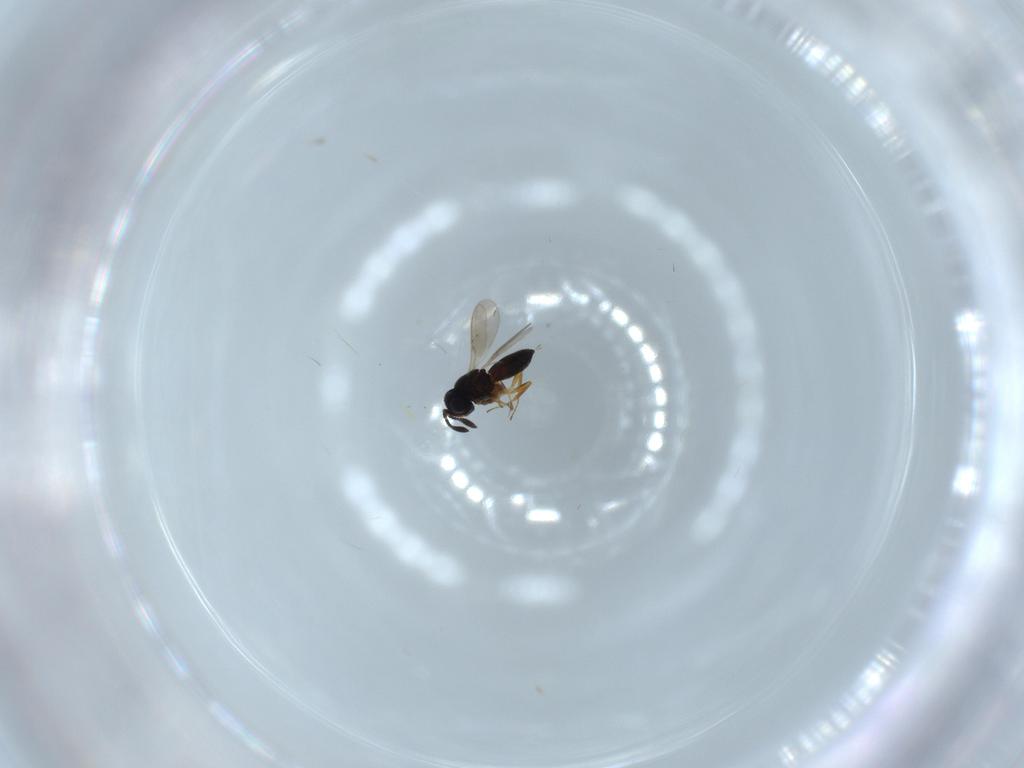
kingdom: Animalia
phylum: Arthropoda
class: Insecta
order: Hymenoptera
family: Scelionidae
